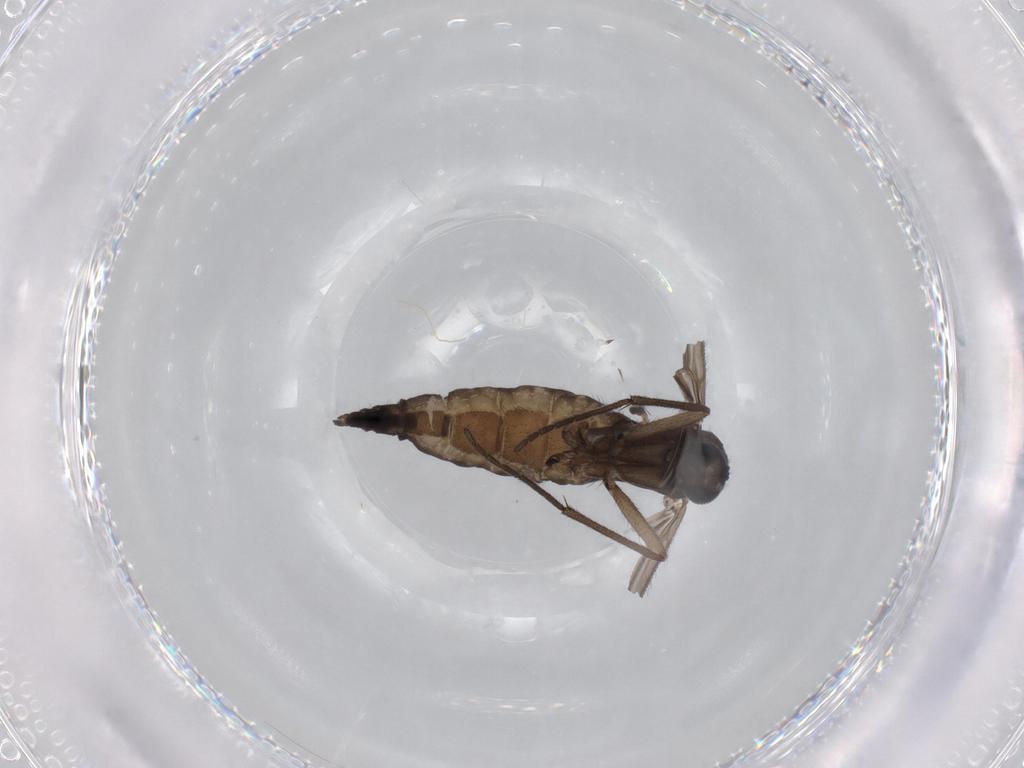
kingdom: Animalia
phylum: Arthropoda
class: Insecta
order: Diptera
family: Sciaridae
